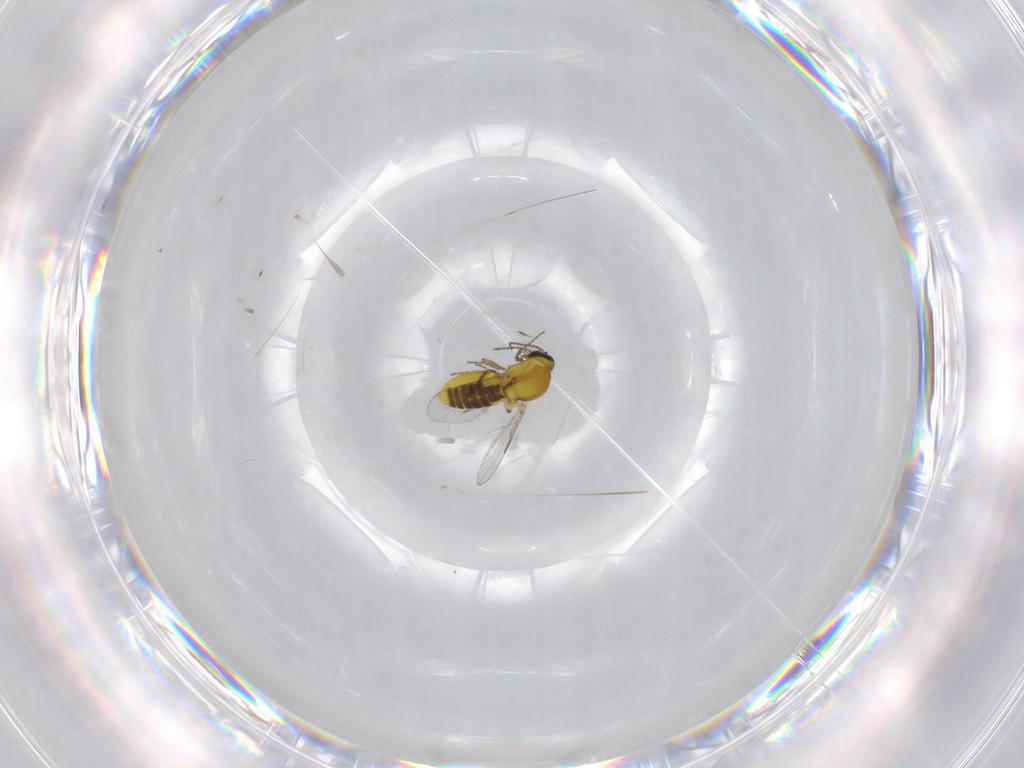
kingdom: Animalia
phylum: Arthropoda
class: Insecta
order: Diptera
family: Ceratopogonidae
